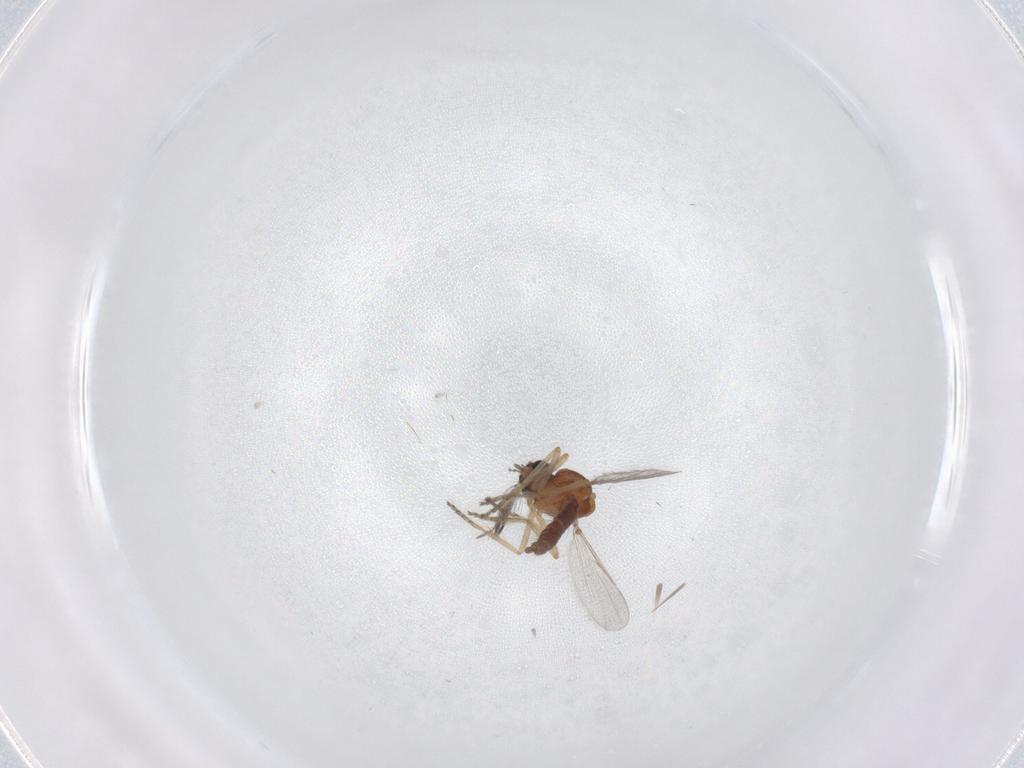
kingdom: Animalia
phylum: Arthropoda
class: Insecta
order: Diptera
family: Ceratopogonidae
